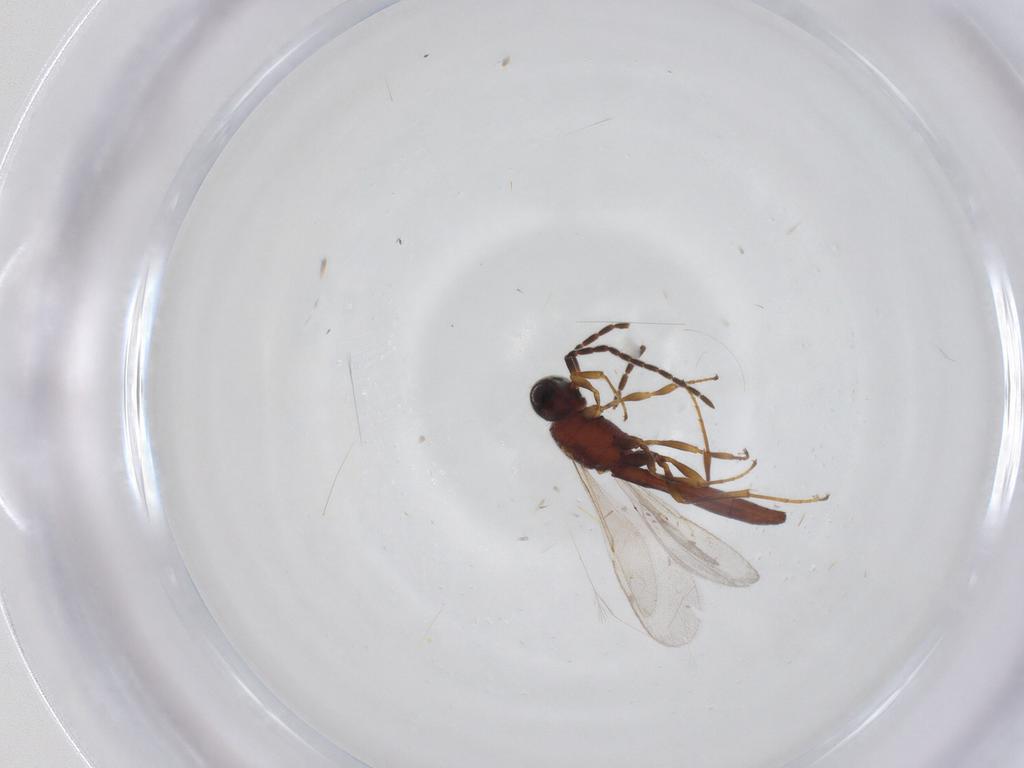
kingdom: Animalia
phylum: Arthropoda
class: Insecta
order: Hymenoptera
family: Scelionidae
